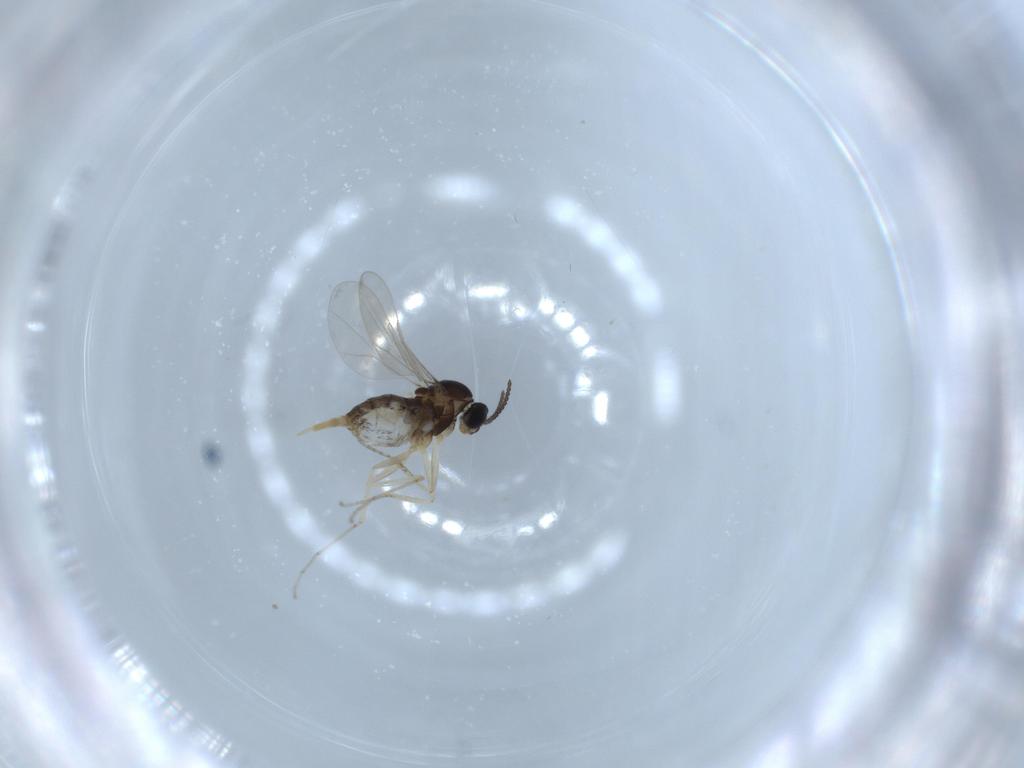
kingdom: Animalia
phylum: Arthropoda
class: Insecta
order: Diptera
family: Cecidomyiidae
